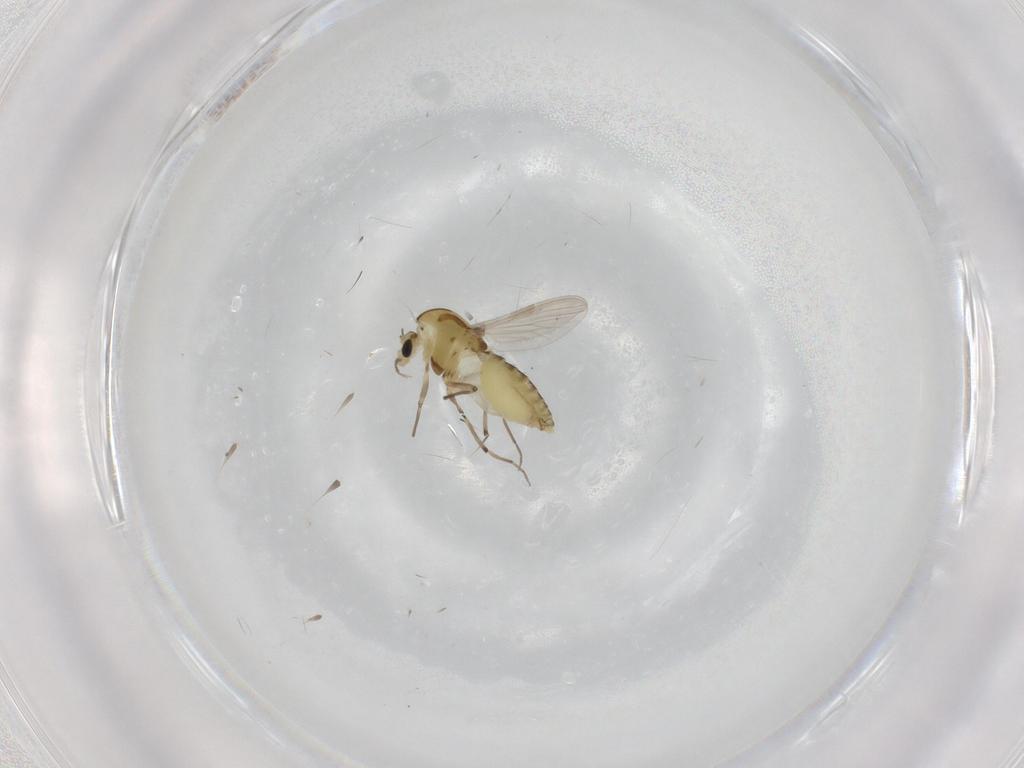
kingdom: Animalia
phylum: Arthropoda
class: Insecta
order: Diptera
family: Chironomidae
